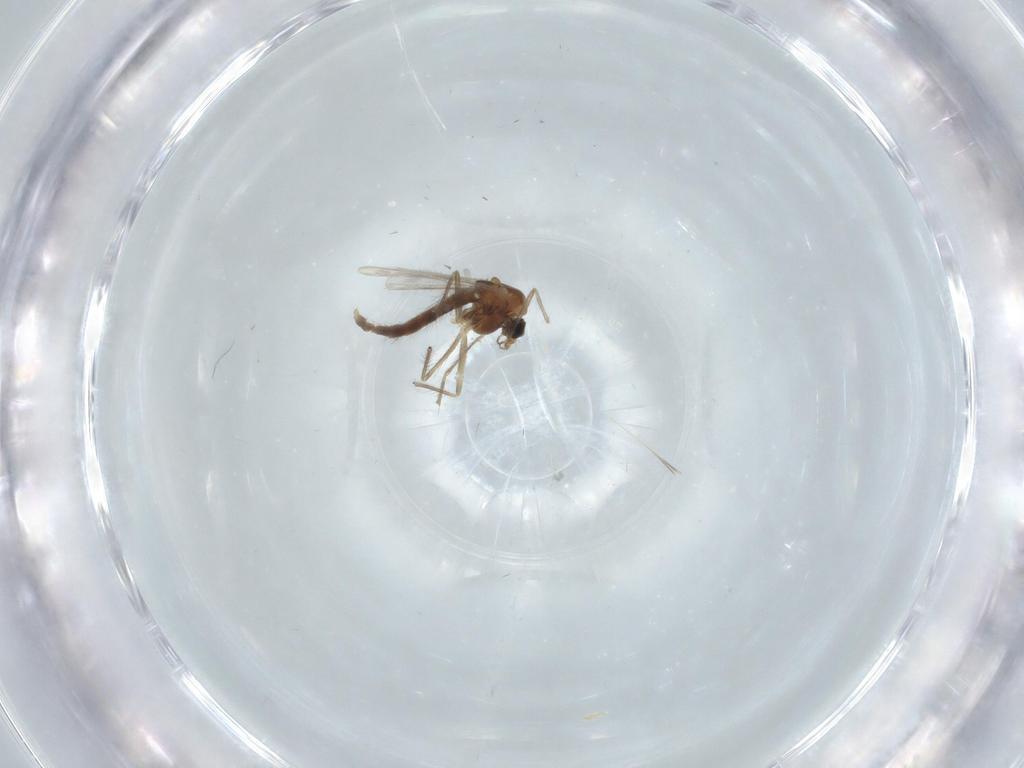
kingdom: Animalia
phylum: Arthropoda
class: Insecta
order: Diptera
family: Chironomidae
